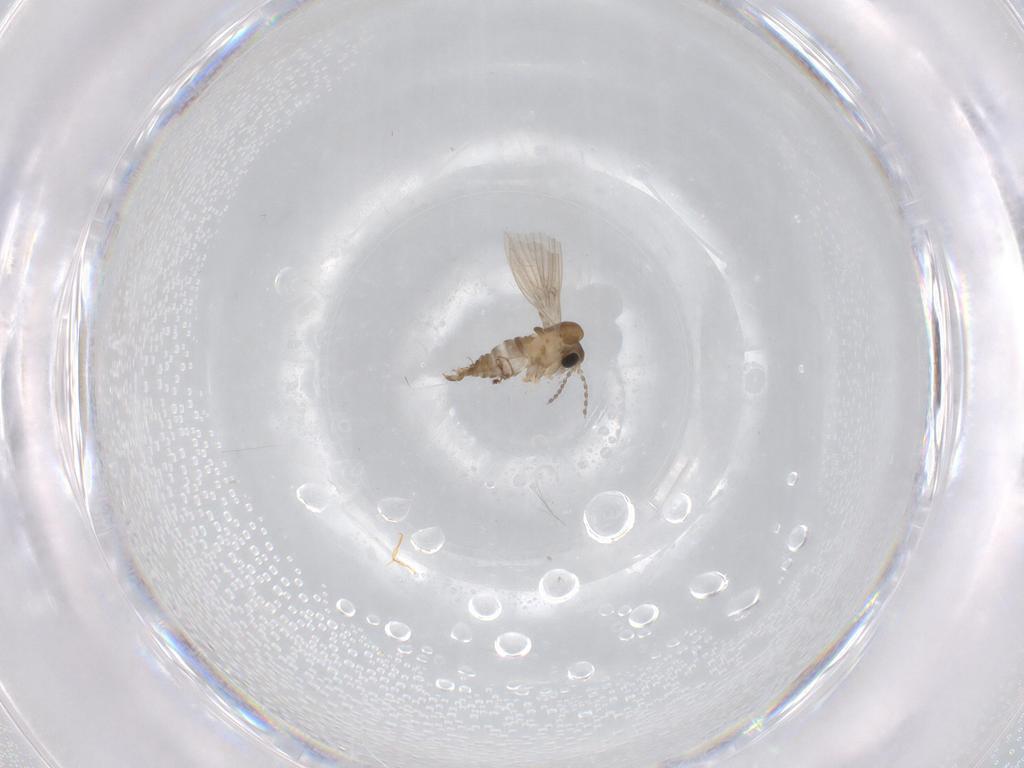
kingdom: Animalia
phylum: Arthropoda
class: Insecta
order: Diptera
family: Psychodidae
